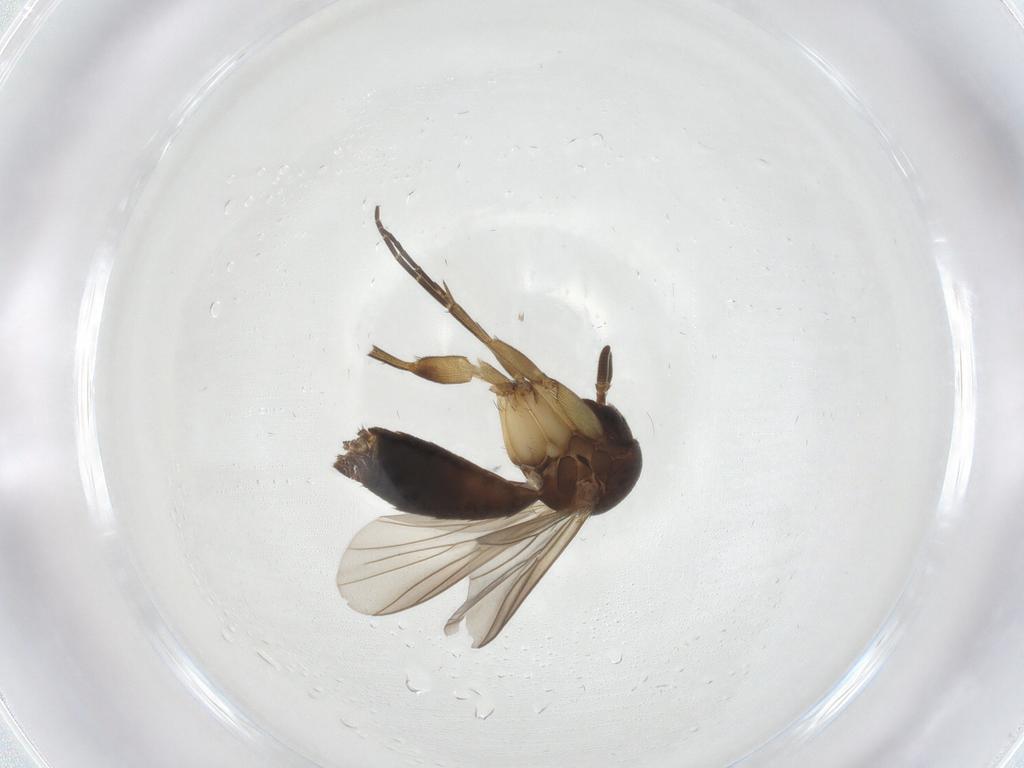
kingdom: Animalia
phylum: Arthropoda
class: Insecta
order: Diptera
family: Mycetophilidae
